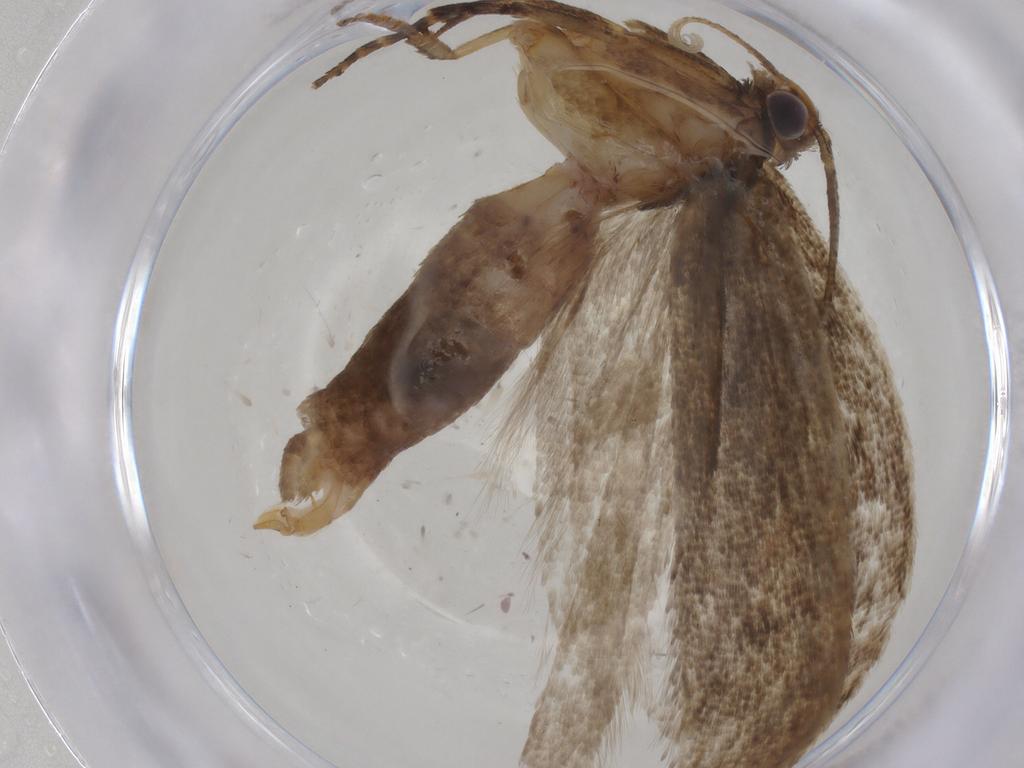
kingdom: Animalia
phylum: Arthropoda
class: Insecta
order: Lepidoptera
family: Gelechiidae
